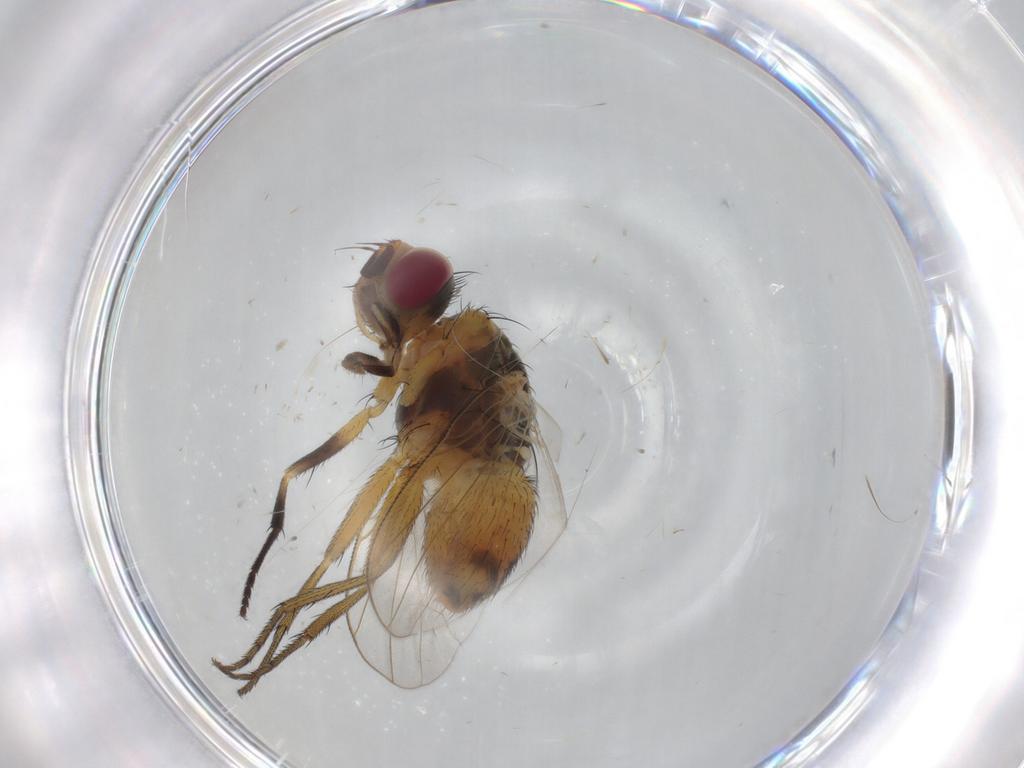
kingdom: Animalia
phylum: Arthropoda
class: Insecta
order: Diptera
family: Muscidae
